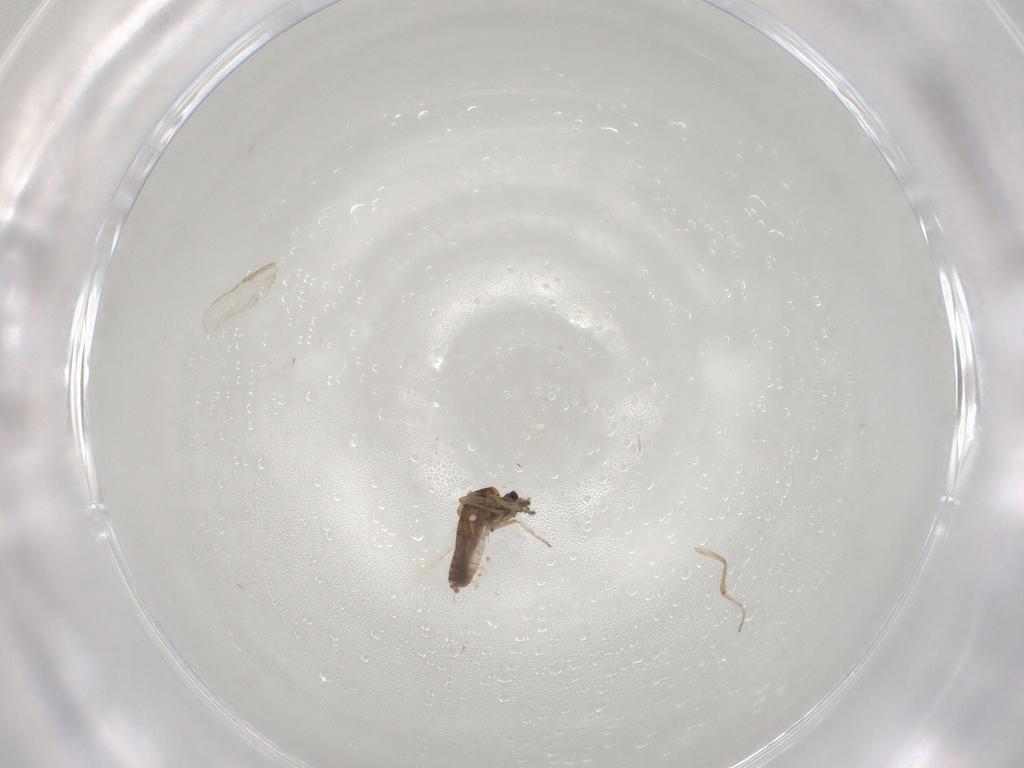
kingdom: Animalia
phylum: Arthropoda
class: Insecta
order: Diptera
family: Ceratopogonidae
